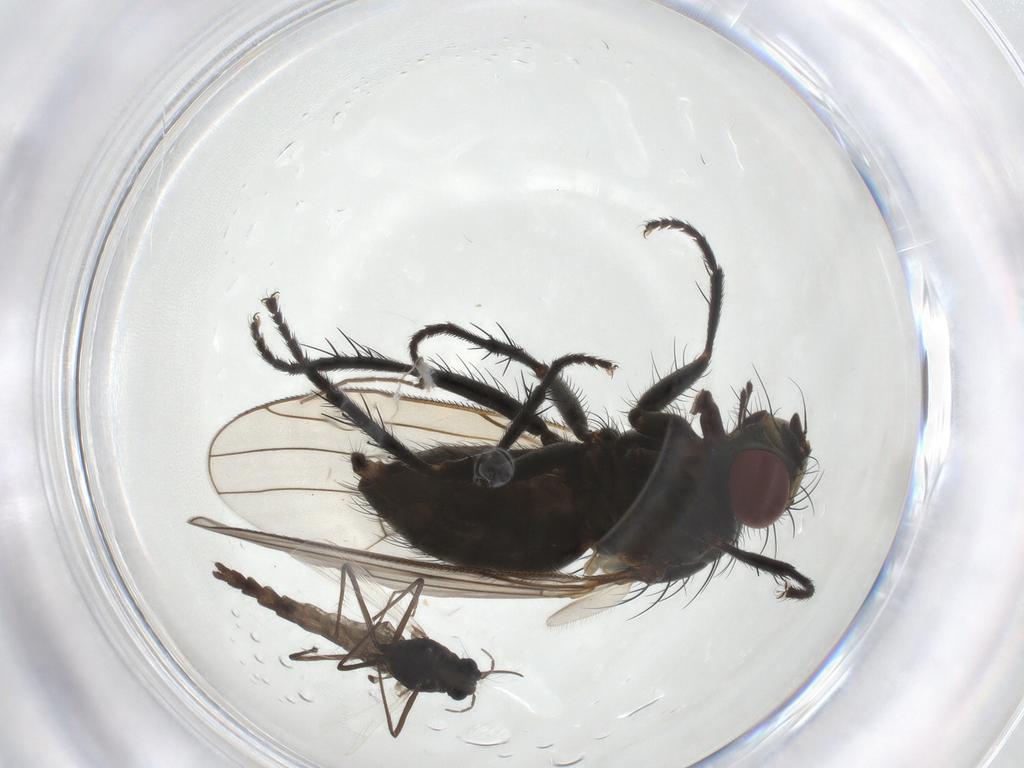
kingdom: Animalia
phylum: Arthropoda
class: Insecta
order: Diptera
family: Muscidae
